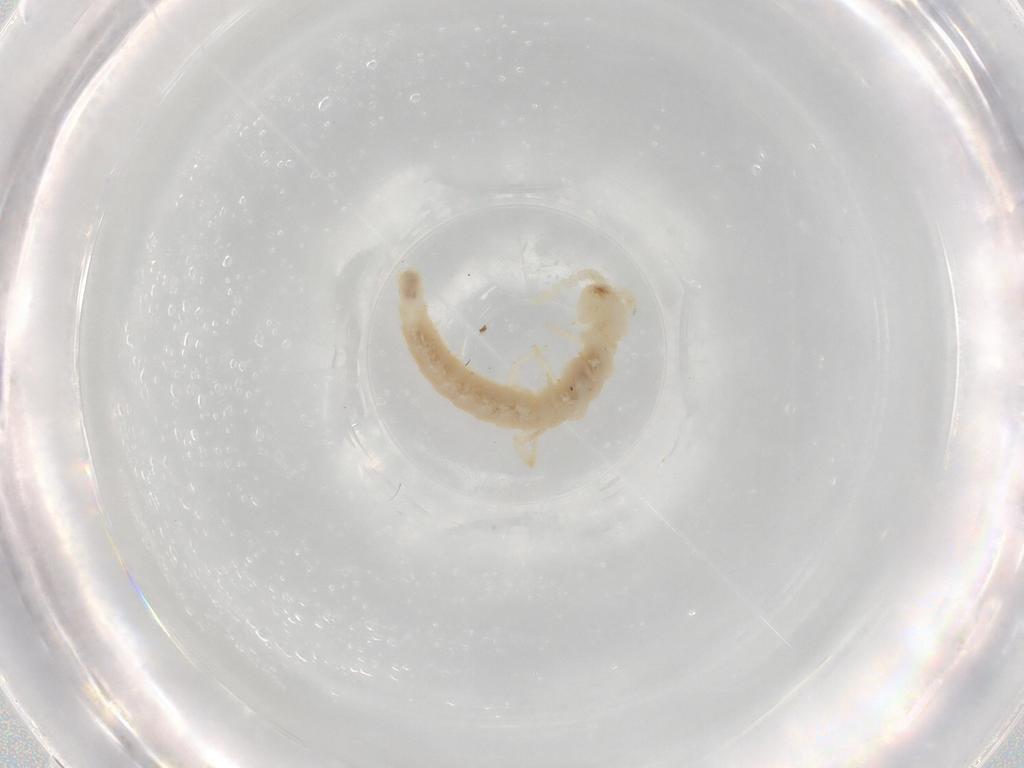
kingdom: Animalia
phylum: Arthropoda
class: Diplura
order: Diplura
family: Campodeidae
